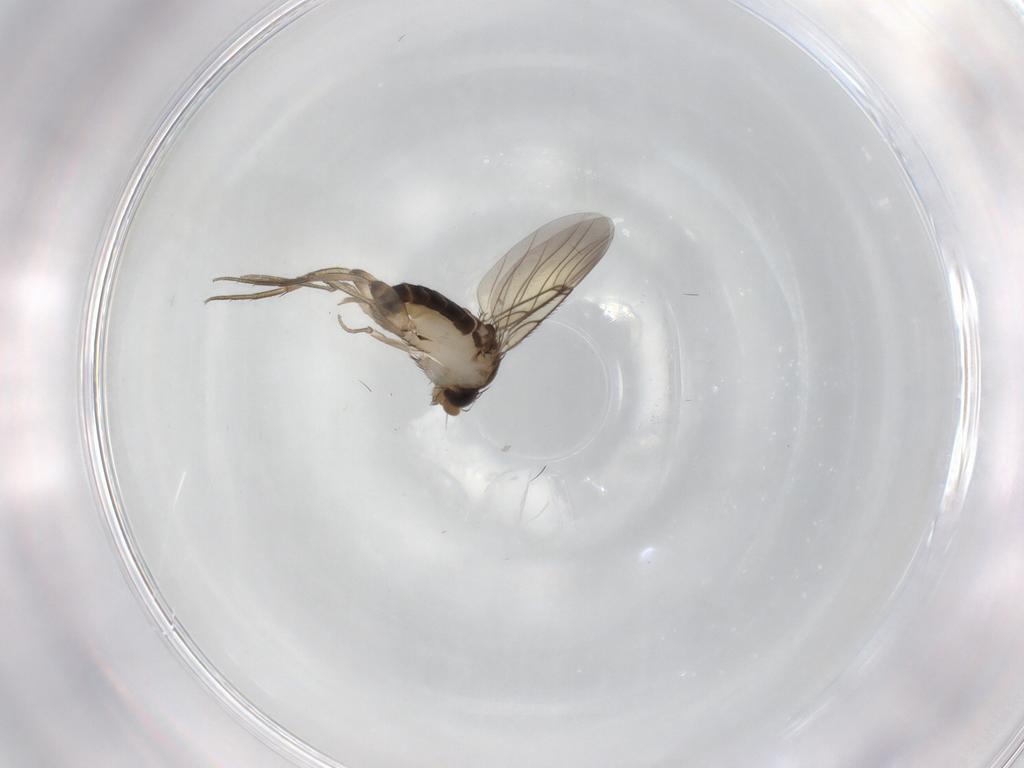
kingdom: Animalia
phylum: Arthropoda
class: Insecta
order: Diptera
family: Phoridae
